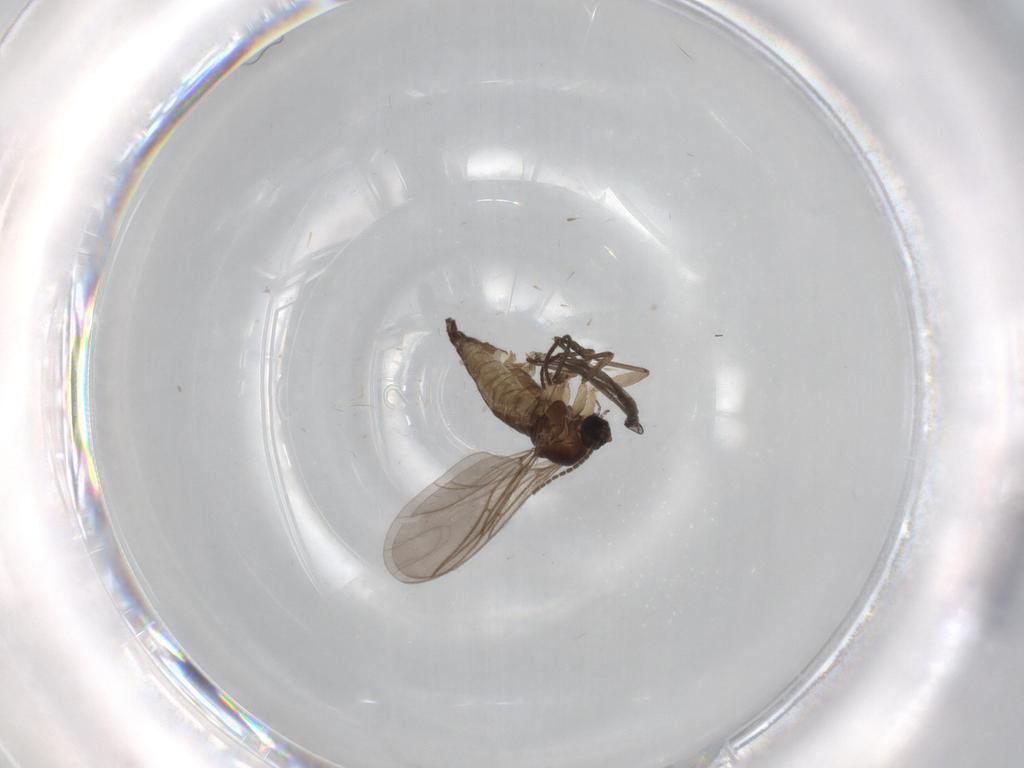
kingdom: Animalia
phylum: Arthropoda
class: Insecta
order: Diptera
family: Sciaridae
